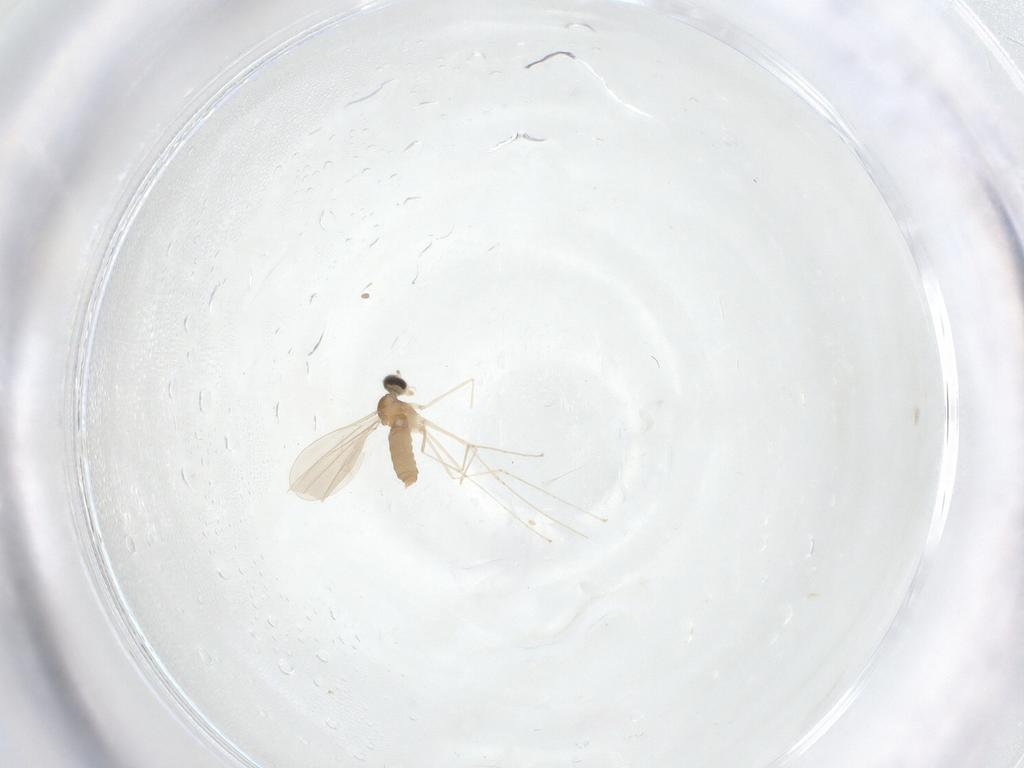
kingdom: Animalia
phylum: Arthropoda
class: Insecta
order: Diptera
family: Cecidomyiidae
